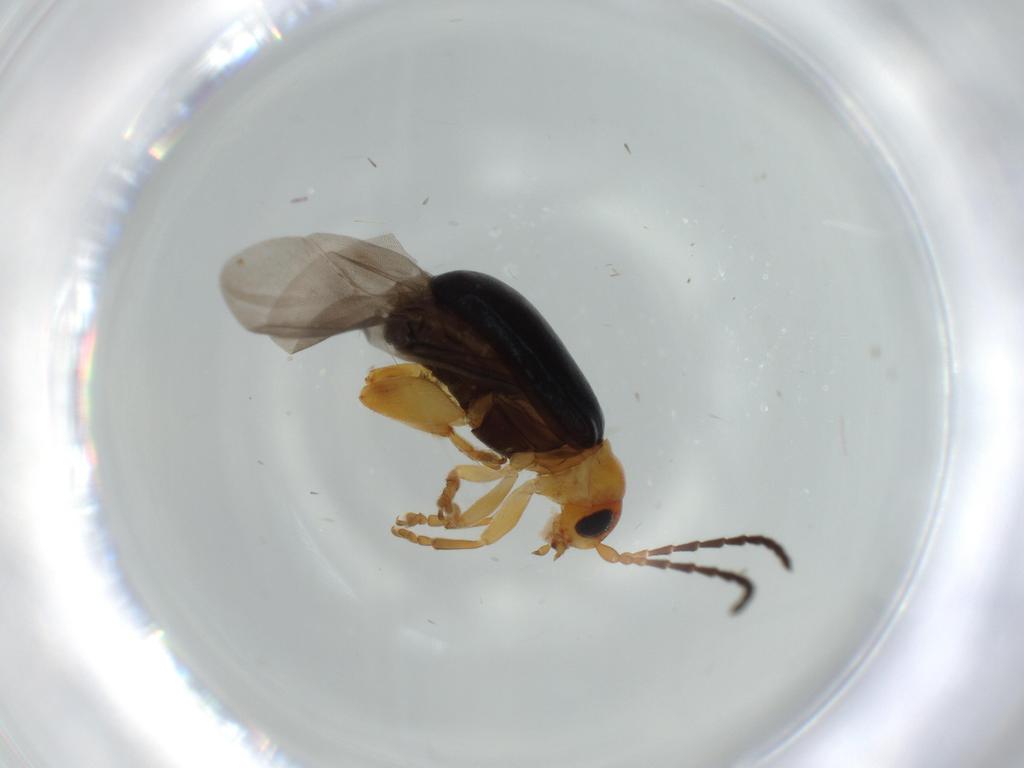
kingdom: Animalia
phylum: Arthropoda
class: Insecta
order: Coleoptera
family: Chrysomelidae
